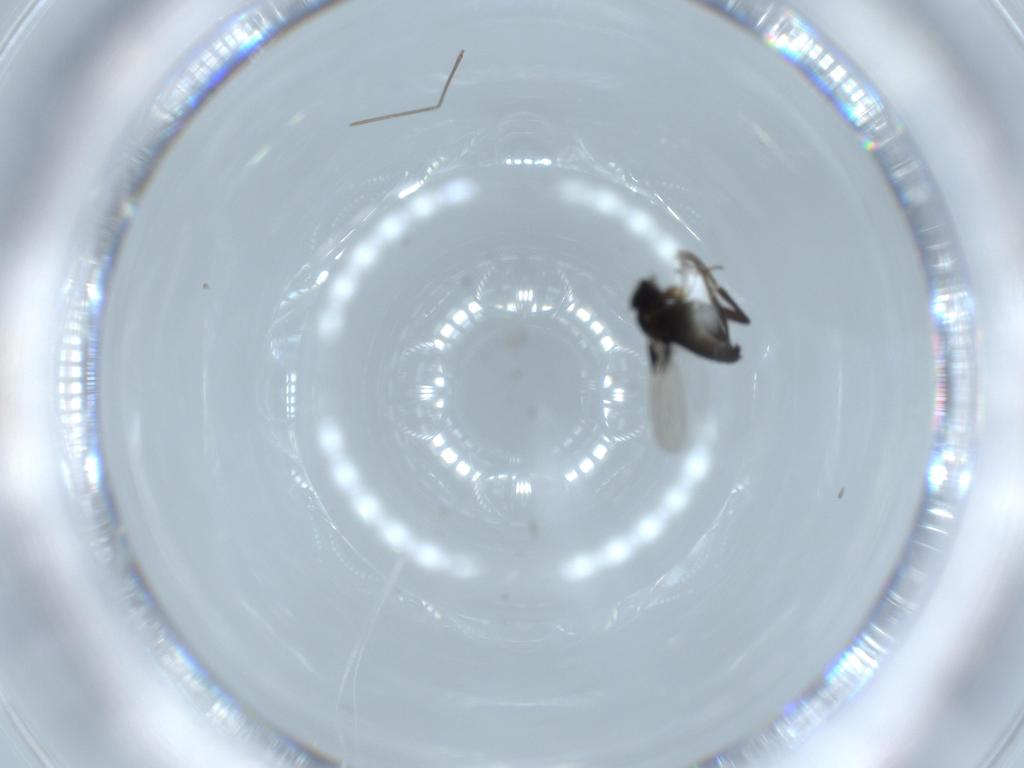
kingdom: Animalia
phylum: Arthropoda
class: Insecta
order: Diptera
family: Cecidomyiidae
